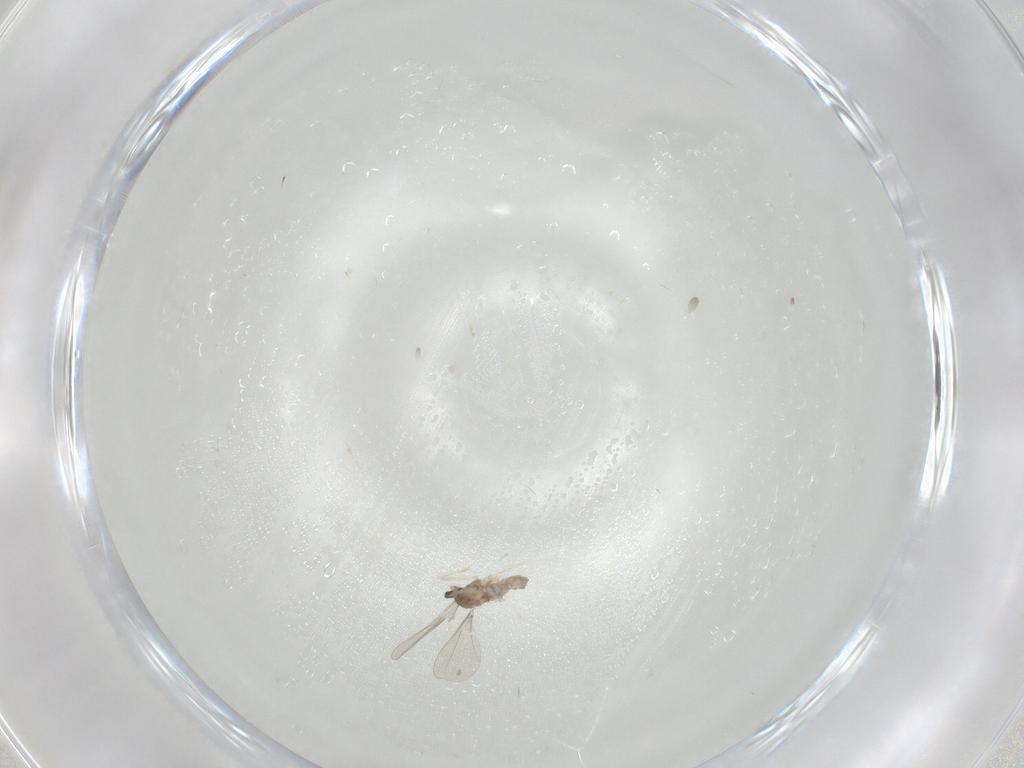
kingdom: Animalia
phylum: Arthropoda
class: Insecta
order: Diptera
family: Cecidomyiidae
